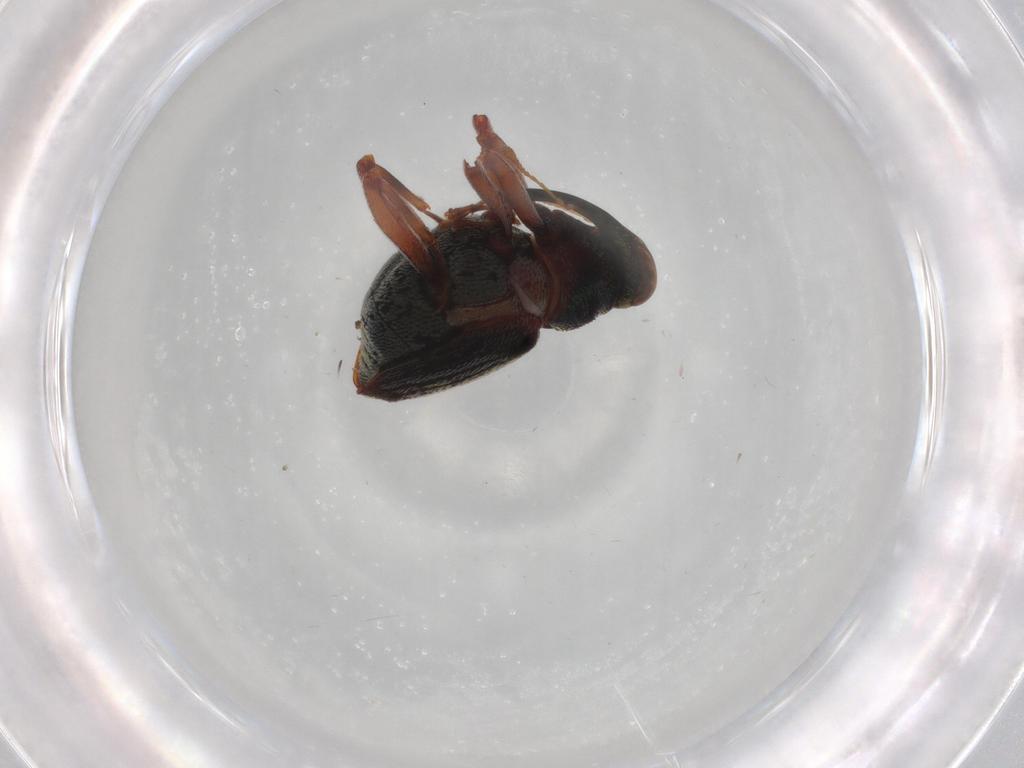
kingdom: Animalia
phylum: Arthropoda
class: Insecta
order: Coleoptera
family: Curculionidae
